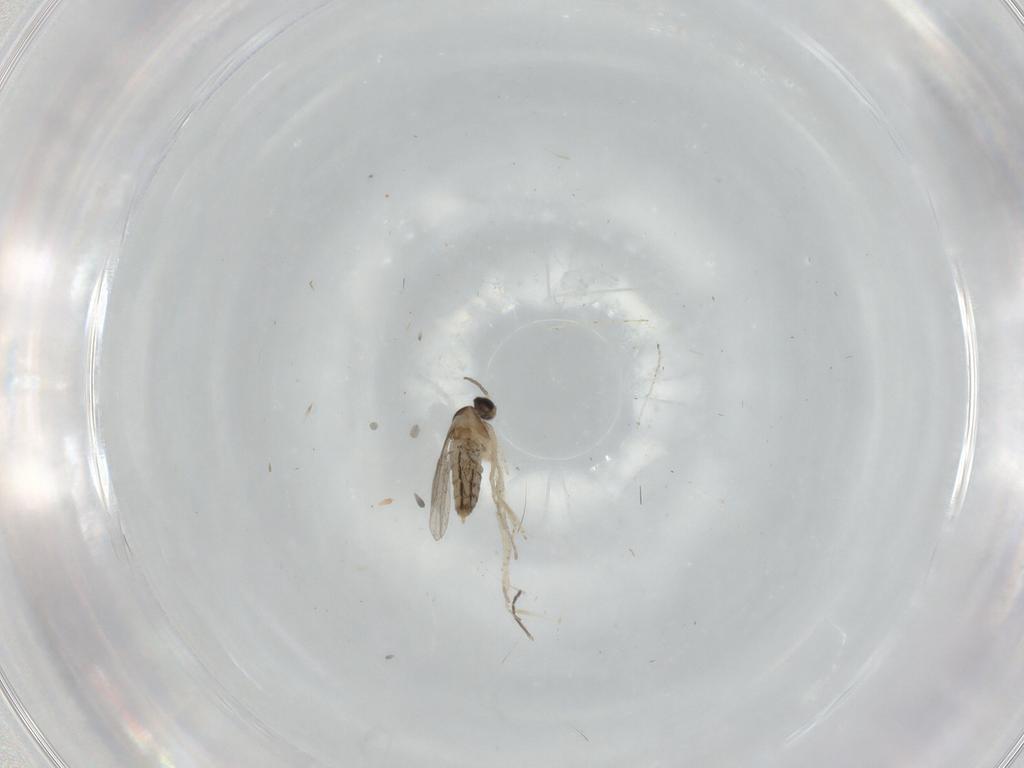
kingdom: Animalia
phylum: Arthropoda
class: Insecta
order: Diptera
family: Cecidomyiidae
